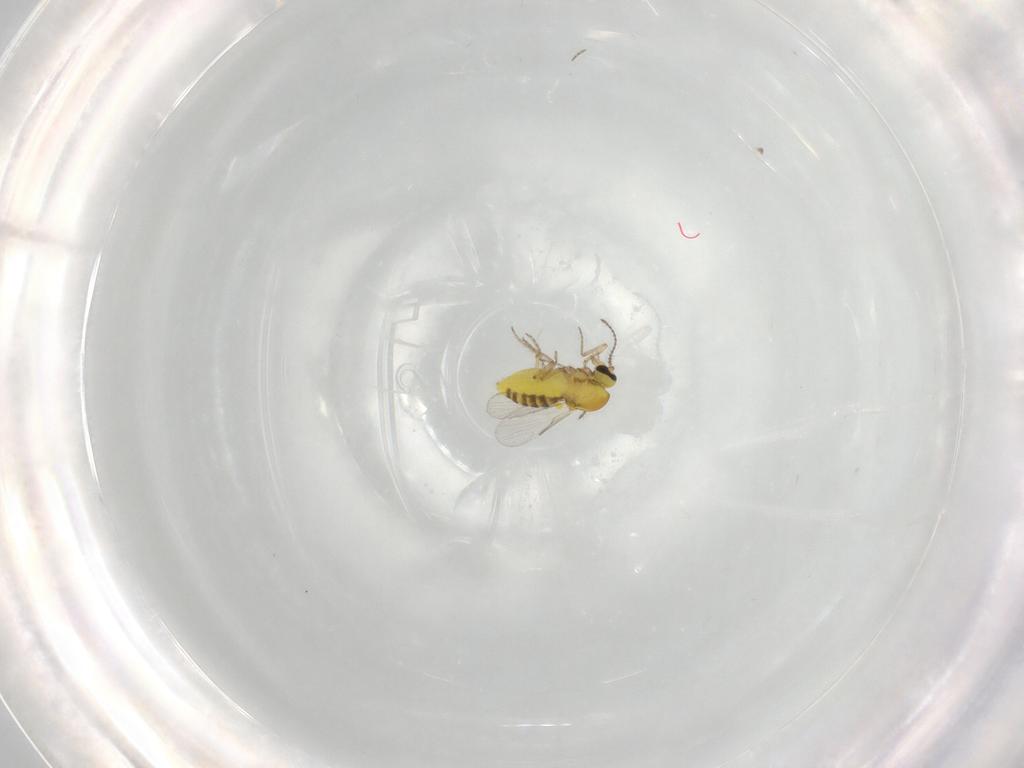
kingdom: Animalia
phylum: Arthropoda
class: Insecta
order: Diptera
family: Ceratopogonidae
